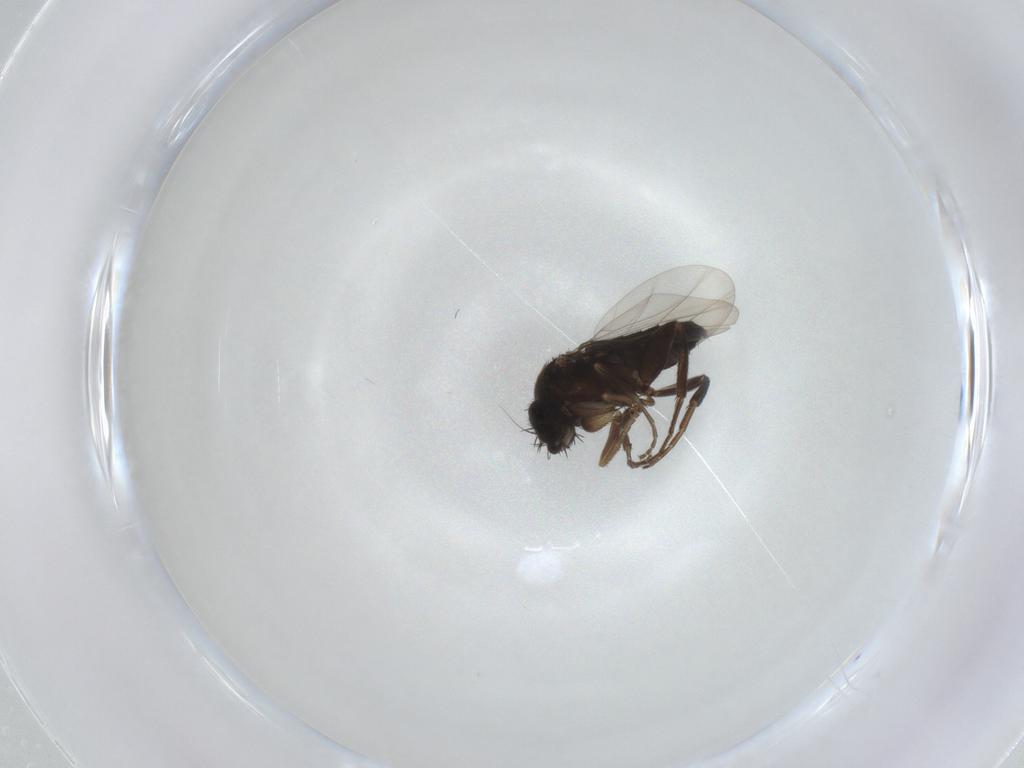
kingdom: Animalia
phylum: Arthropoda
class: Insecta
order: Diptera
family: Phoridae
